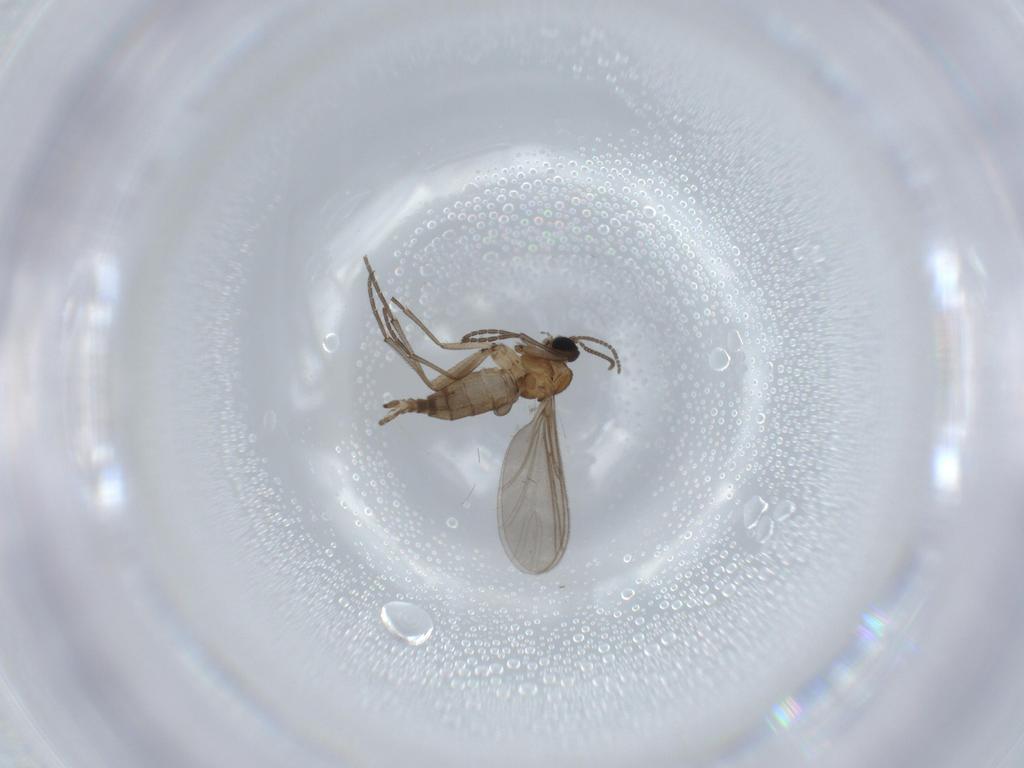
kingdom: Animalia
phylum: Arthropoda
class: Insecta
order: Diptera
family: Sciaridae
